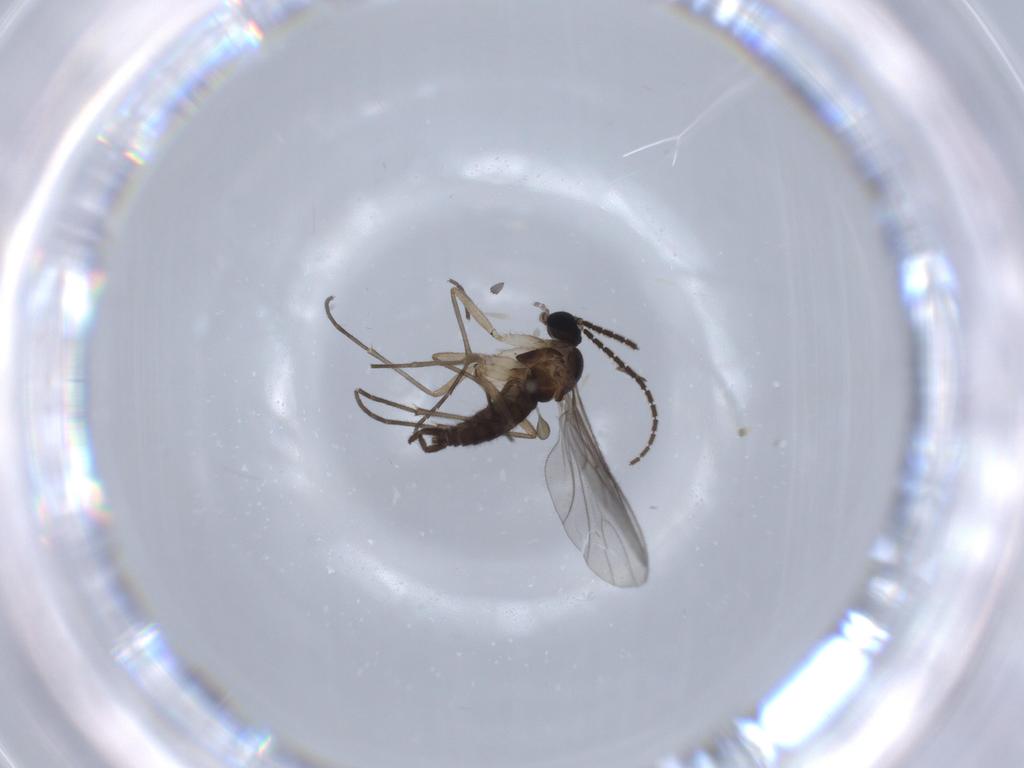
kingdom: Animalia
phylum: Arthropoda
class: Insecta
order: Diptera
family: Sciaridae
